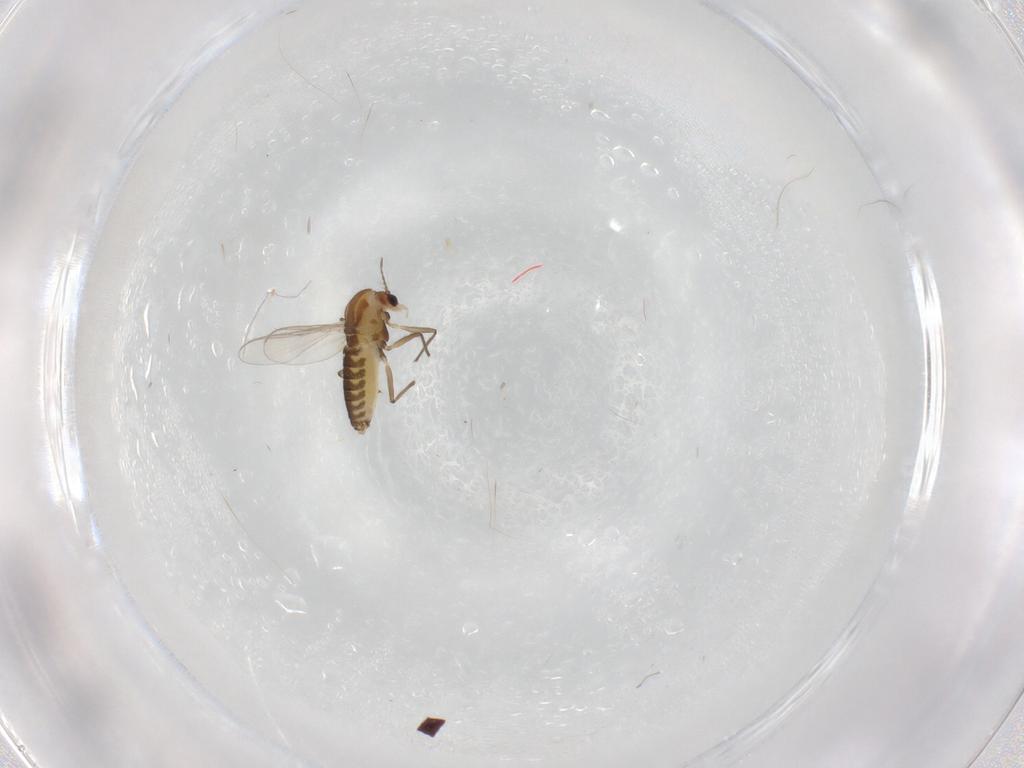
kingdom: Animalia
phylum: Arthropoda
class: Insecta
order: Diptera
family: Chironomidae
